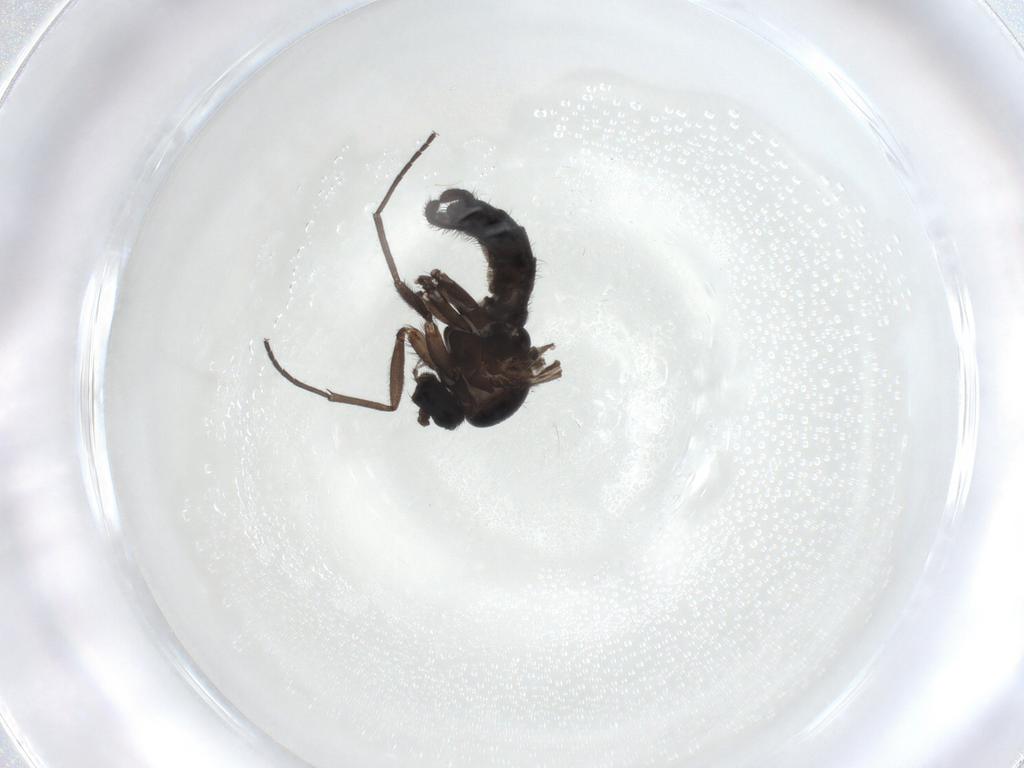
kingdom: Animalia
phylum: Arthropoda
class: Insecta
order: Diptera
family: Sciaridae
